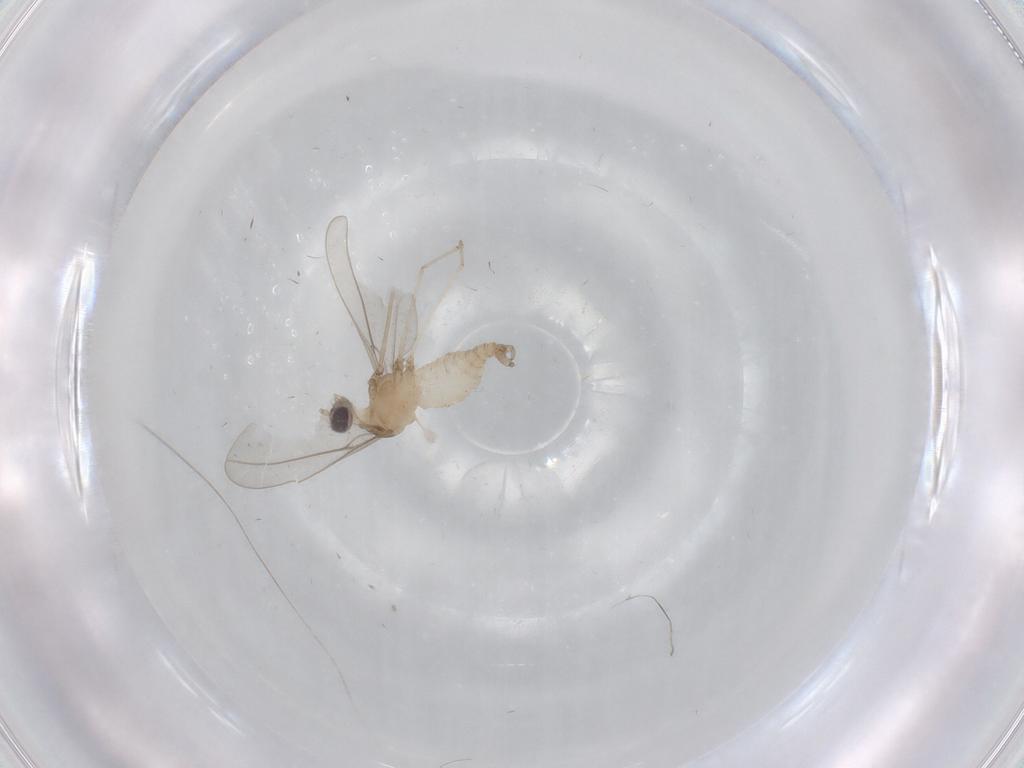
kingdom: Animalia
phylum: Arthropoda
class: Insecta
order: Diptera
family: Cecidomyiidae
